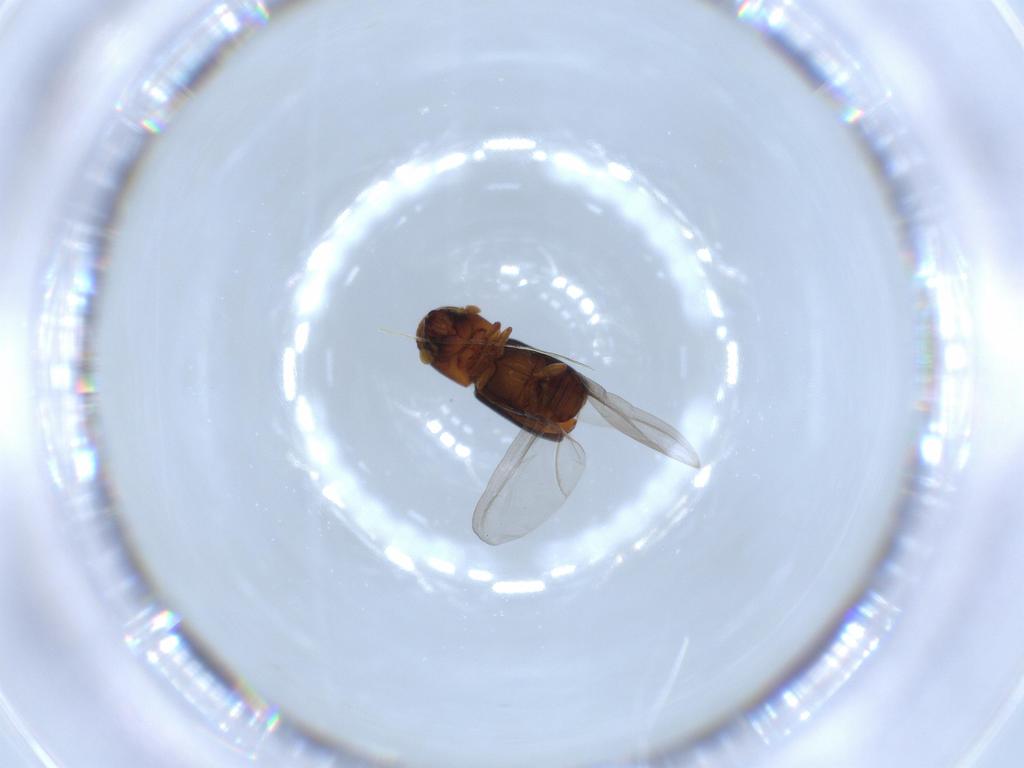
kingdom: Animalia
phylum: Arthropoda
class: Insecta
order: Coleoptera
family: Curculionidae
